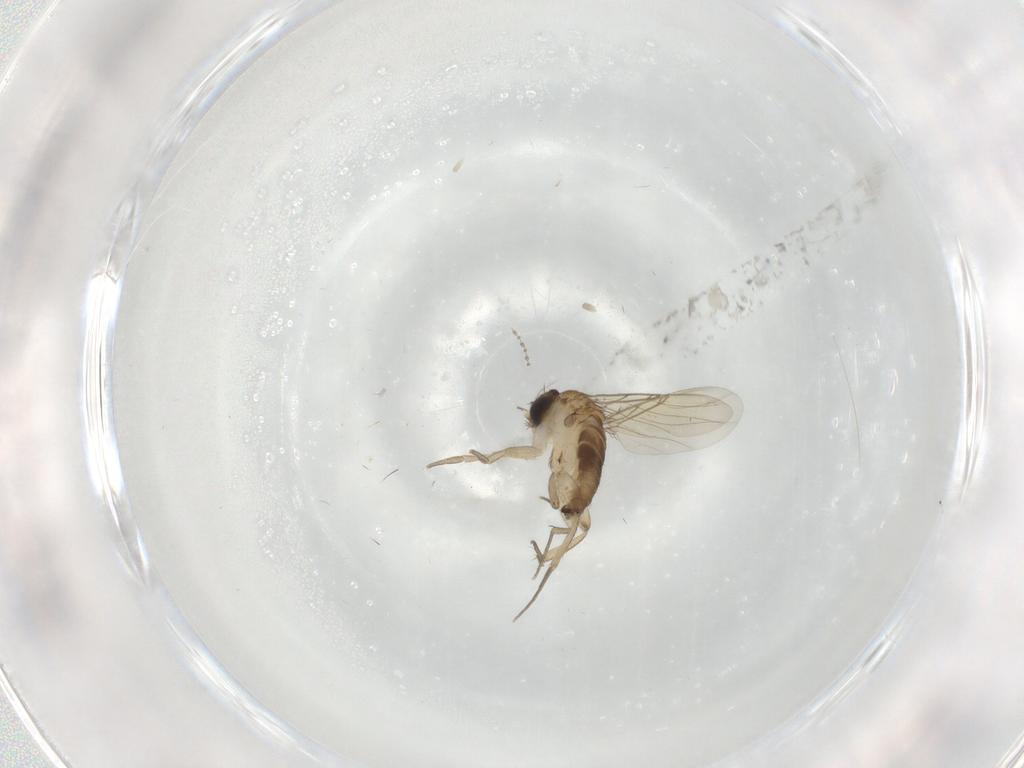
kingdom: Animalia
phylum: Arthropoda
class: Insecta
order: Diptera
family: Phoridae
